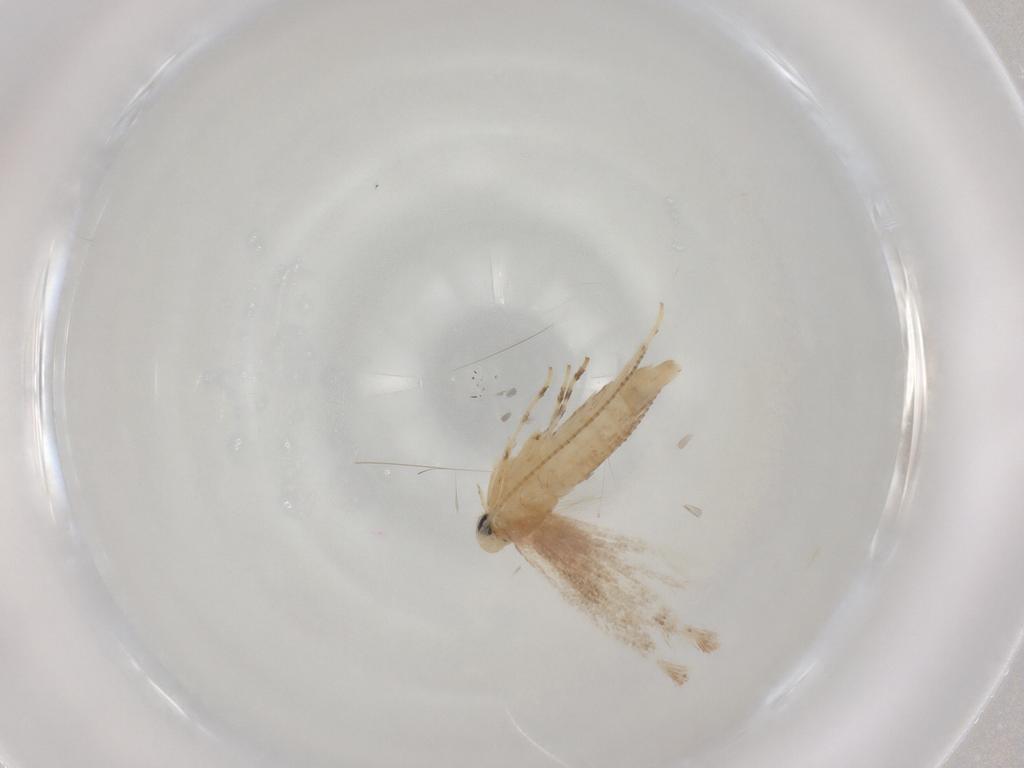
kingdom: Animalia
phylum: Arthropoda
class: Insecta
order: Lepidoptera
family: Gracillariidae
